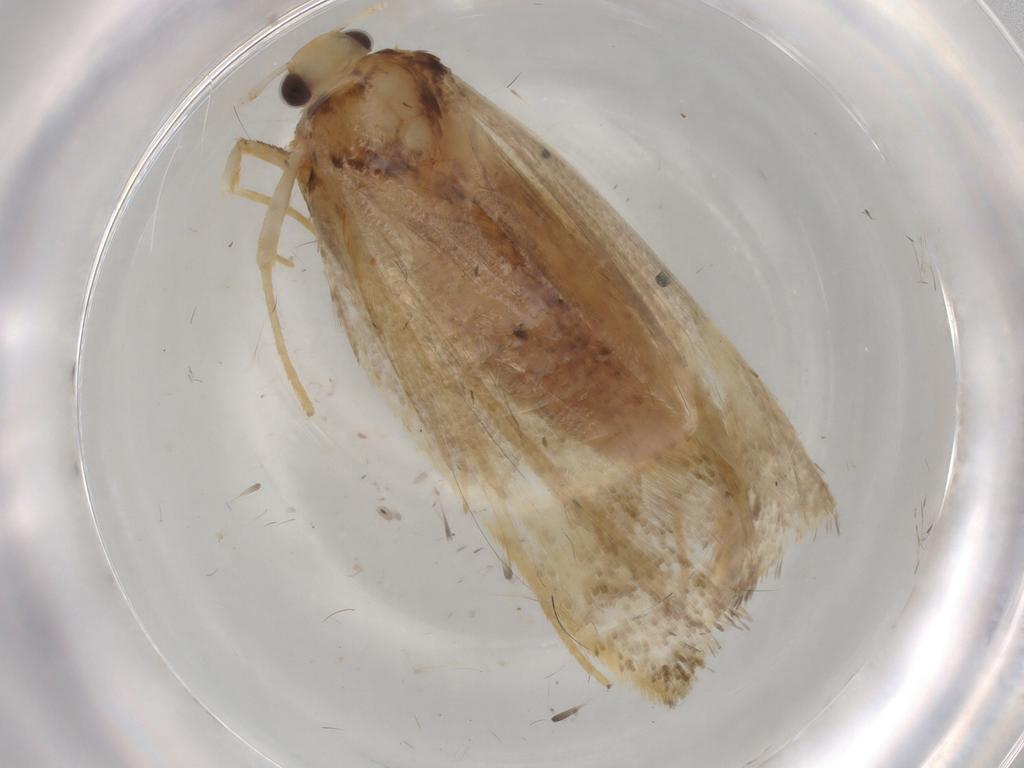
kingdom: Animalia
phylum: Arthropoda
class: Insecta
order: Lepidoptera
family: Lecithoceridae
